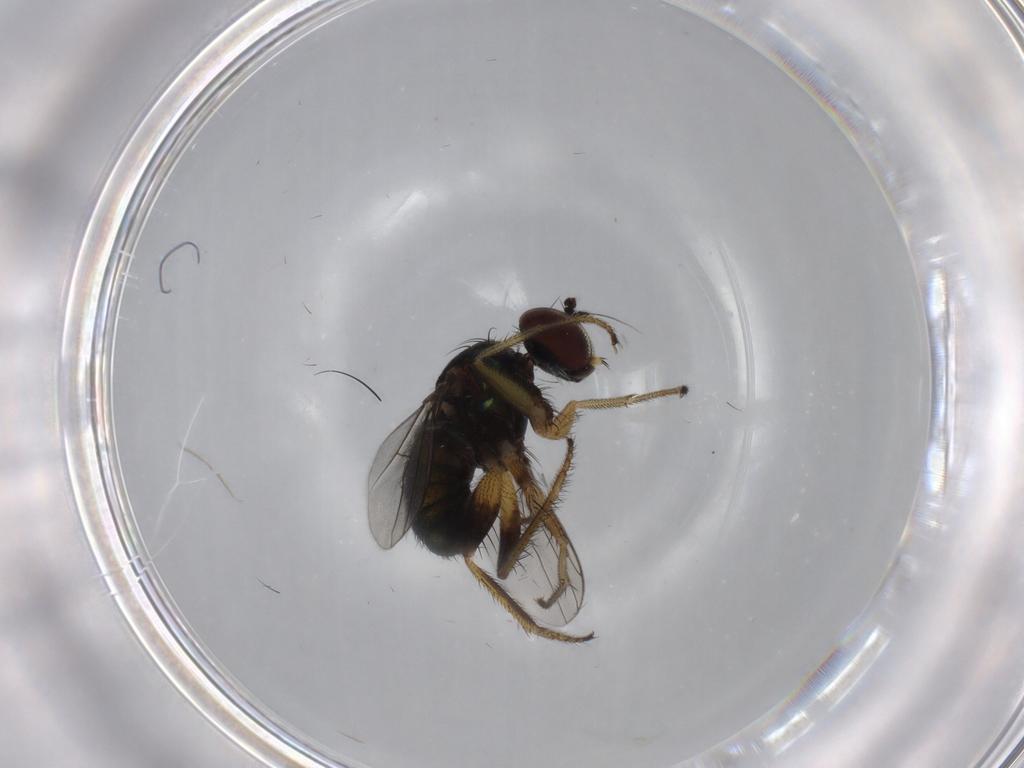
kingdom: Animalia
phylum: Arthropoda
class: Insecta
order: Diptera
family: Dolichopodidae
